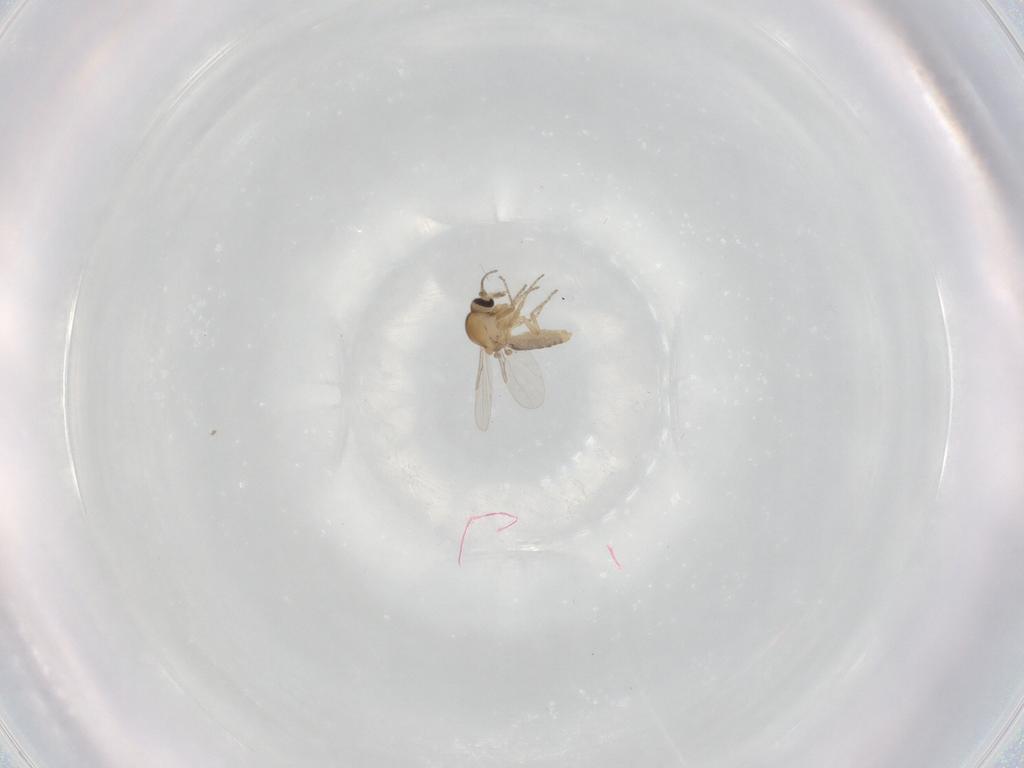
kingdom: Animalia
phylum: Arthropoda
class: Insecta
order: Diptera
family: Ceratopogonidae
